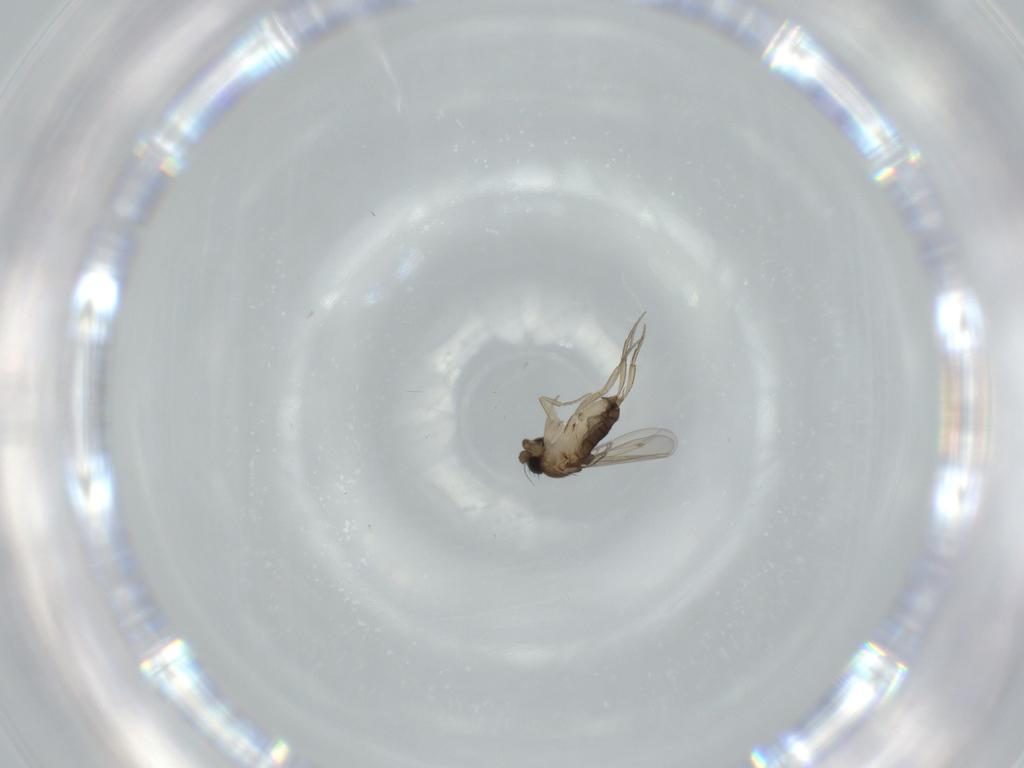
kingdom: Animalia
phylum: Arthropoda
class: Insecta
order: Diptera
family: Phoridae
